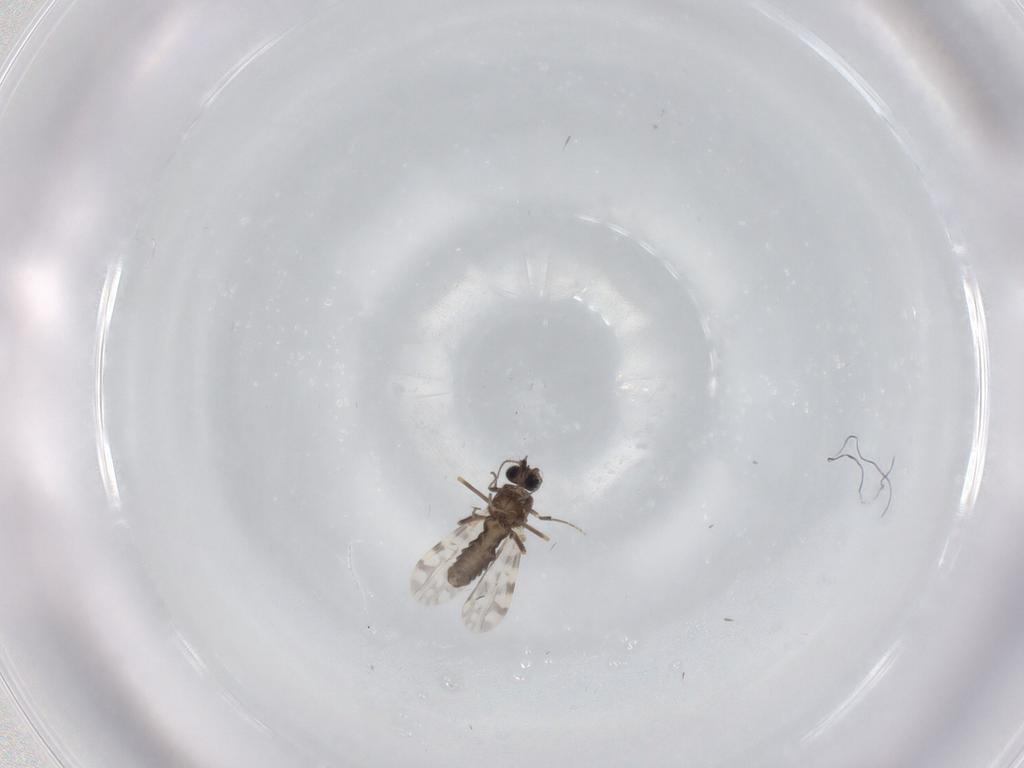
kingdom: Animalia
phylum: Arthropoda
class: Insecta
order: Diptera
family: Ceratopogonidae
